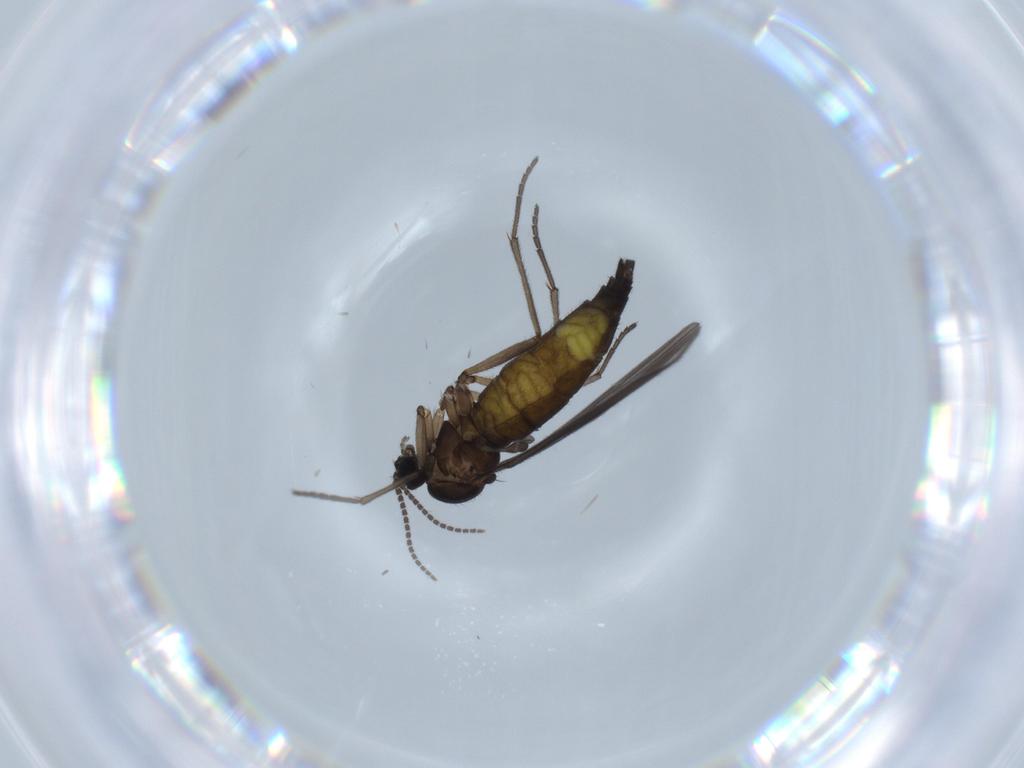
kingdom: Animalia
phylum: Arthropoda
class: Insecta
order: Diptera
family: Sciaridae
